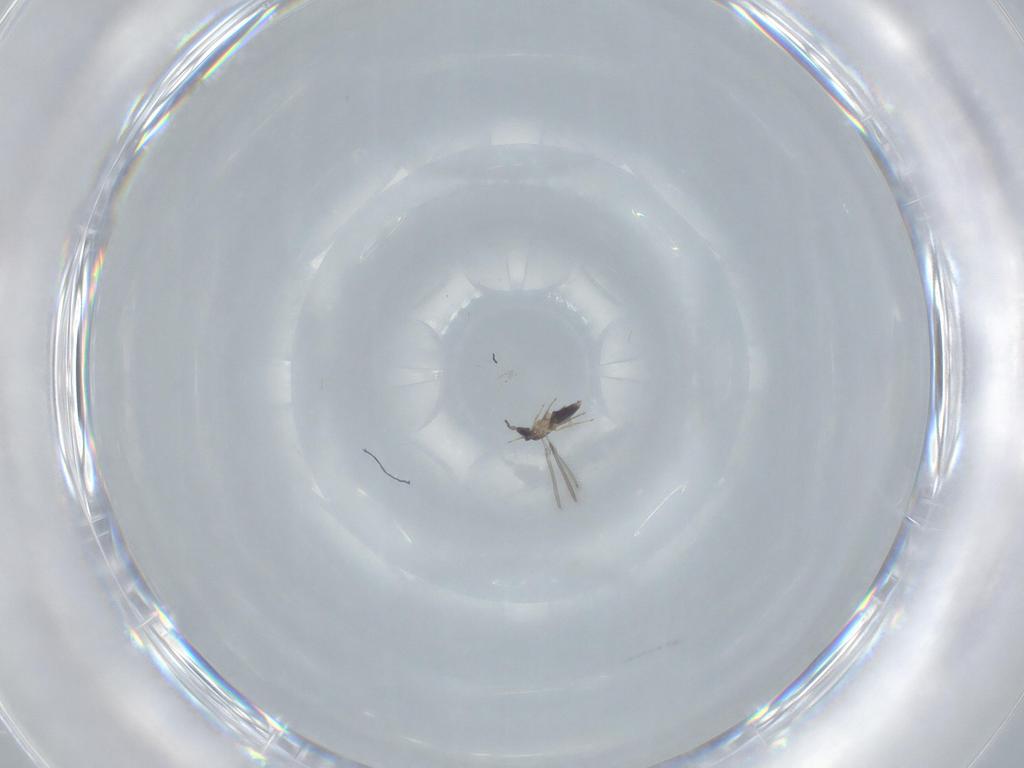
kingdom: Animalia
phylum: Arthropoda
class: Insecta
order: Hymenoptera
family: Mymaridae
